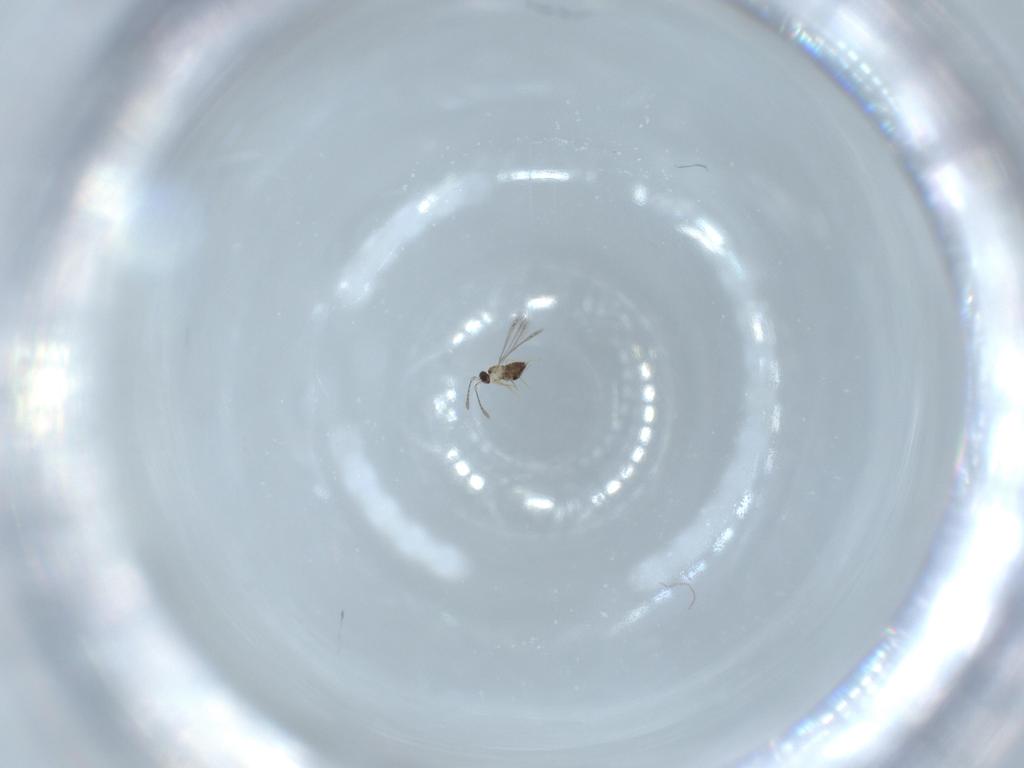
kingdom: Animalia
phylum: Arthropoda
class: Insecta
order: Hymenoptera
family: Mymaridae
